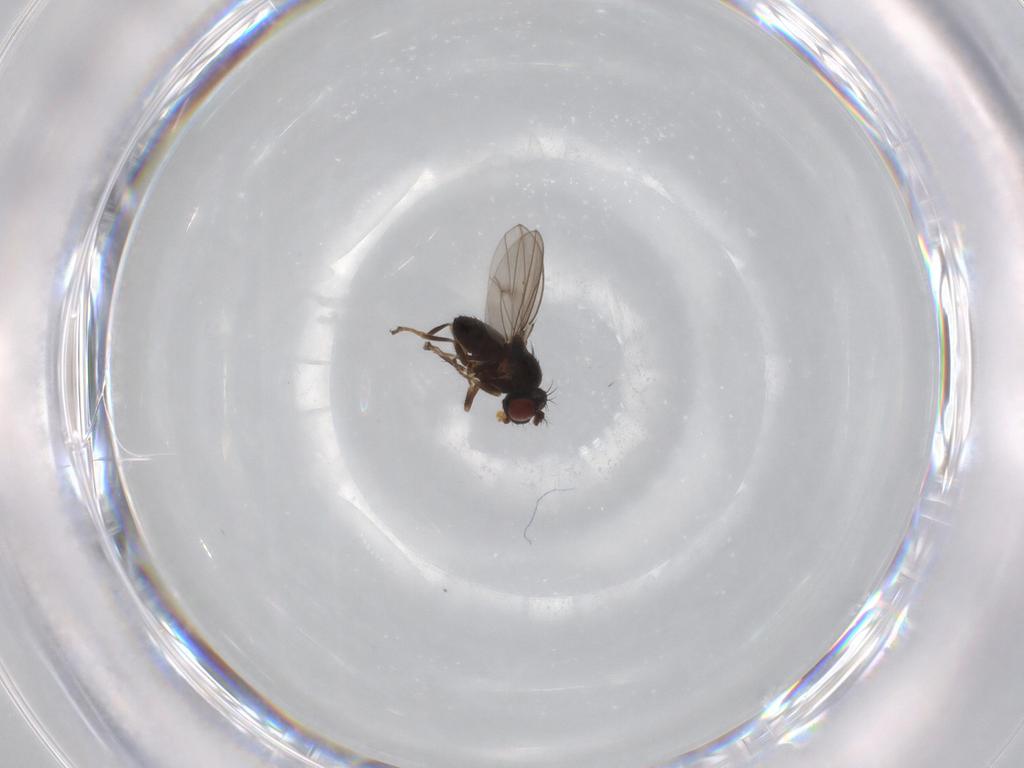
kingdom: Animalia
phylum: Arthropoda
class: Insecta
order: Diptera
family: Ephydridae
